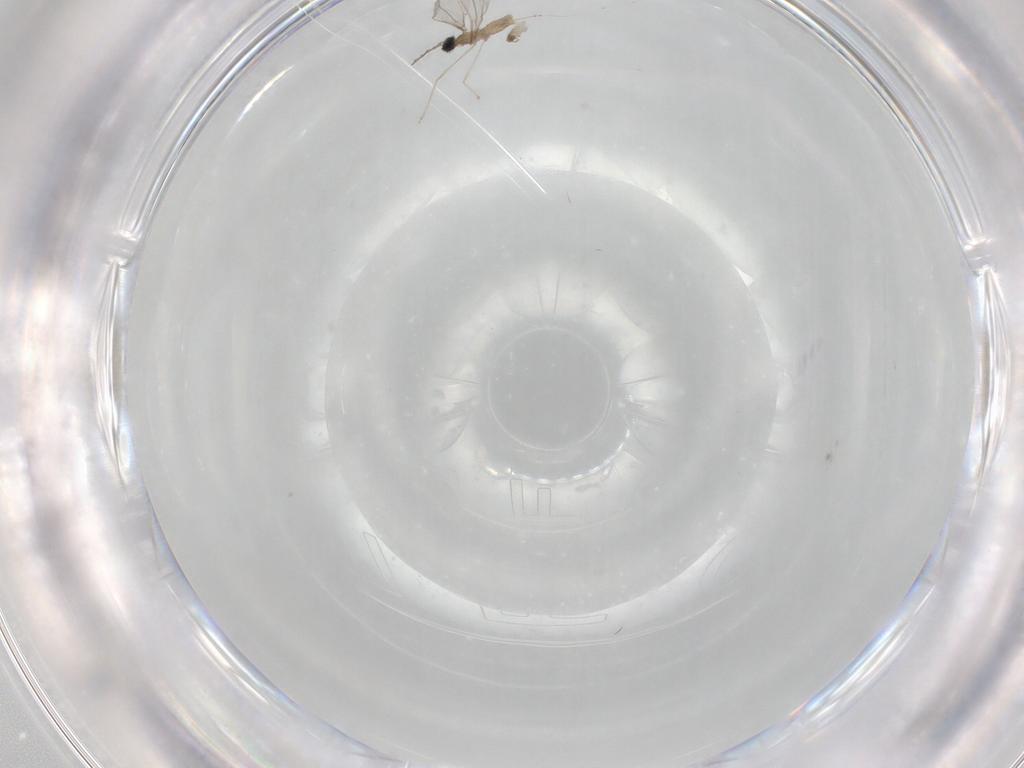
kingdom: Animalia
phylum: Arthropoda
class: Insecta
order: Diptera
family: Cecidomyiidae
